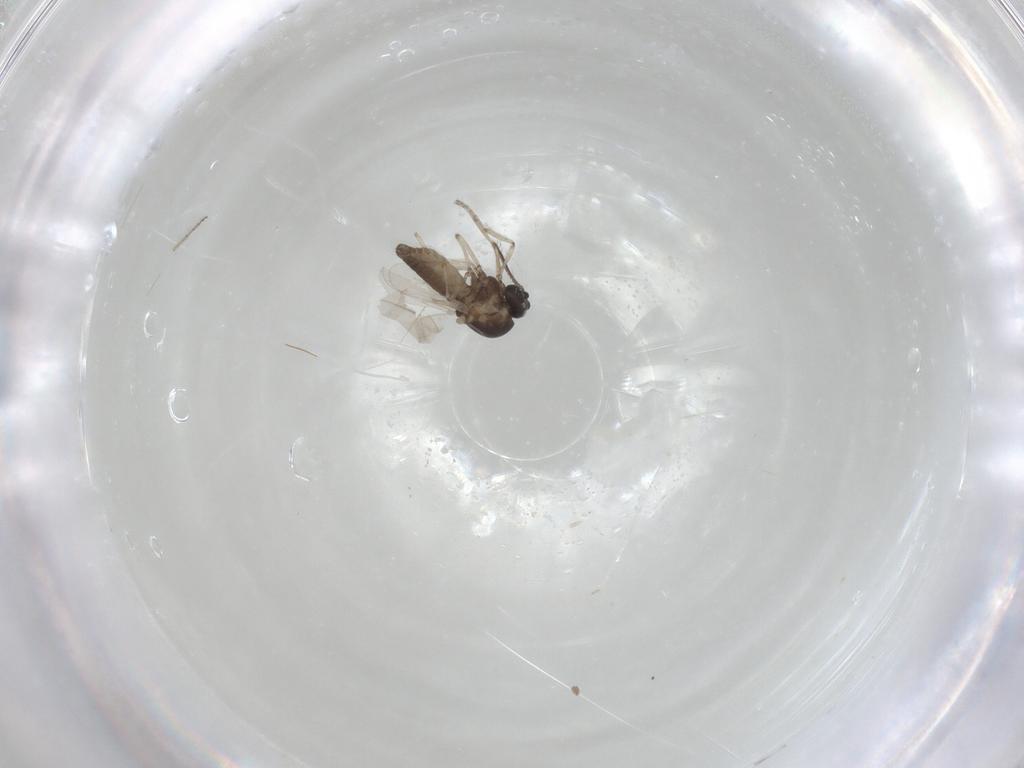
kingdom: Animalia
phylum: Arthropoda
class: Insecta
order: Diptera
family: Ceratopogonidae
